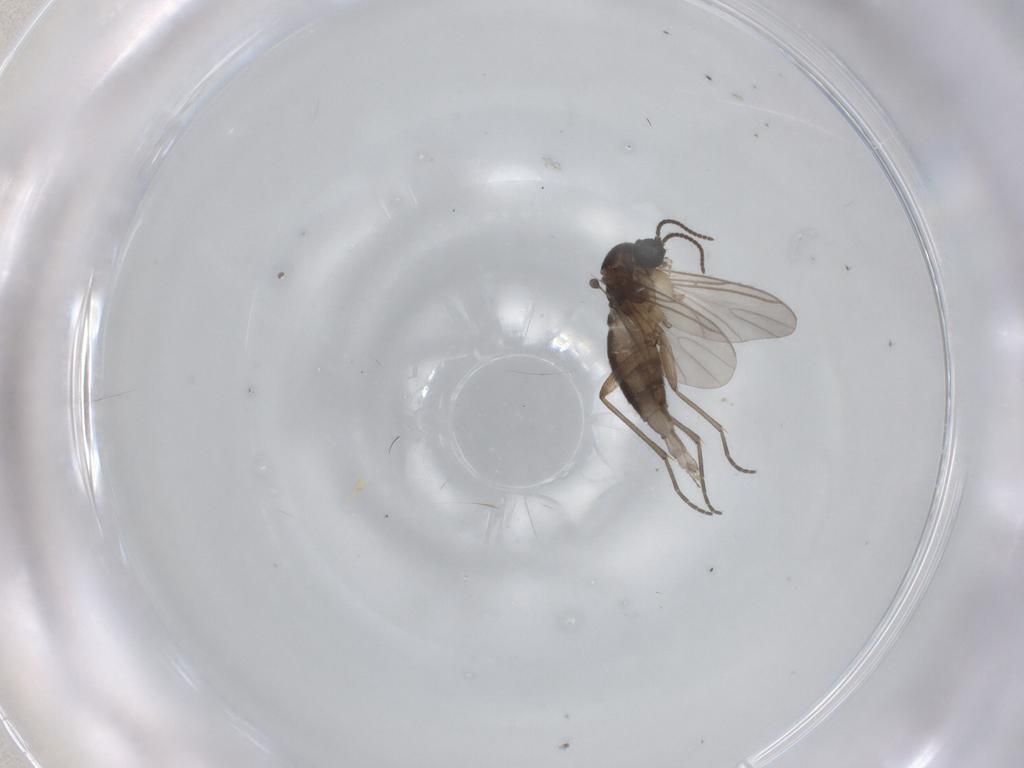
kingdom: Animalia
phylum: Arthropoda
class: Insecta
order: Diptera
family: Sciaridae
